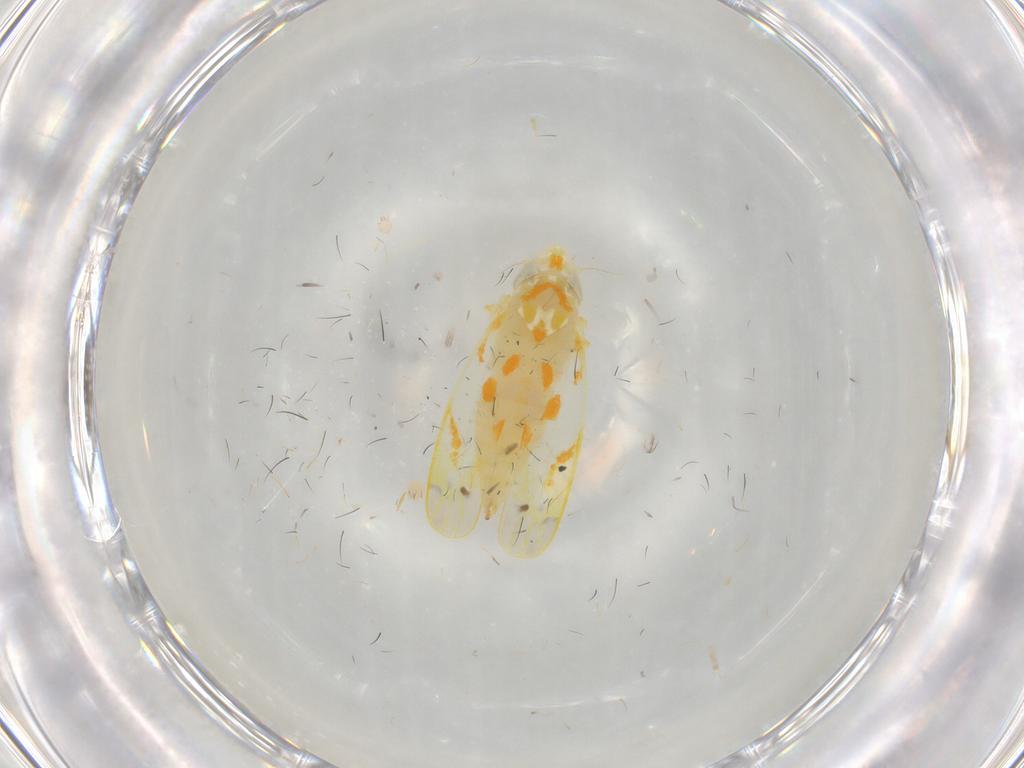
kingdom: Animalia
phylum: Arthropoda
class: Insecta
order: Hemiptera
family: Cicadellidae
